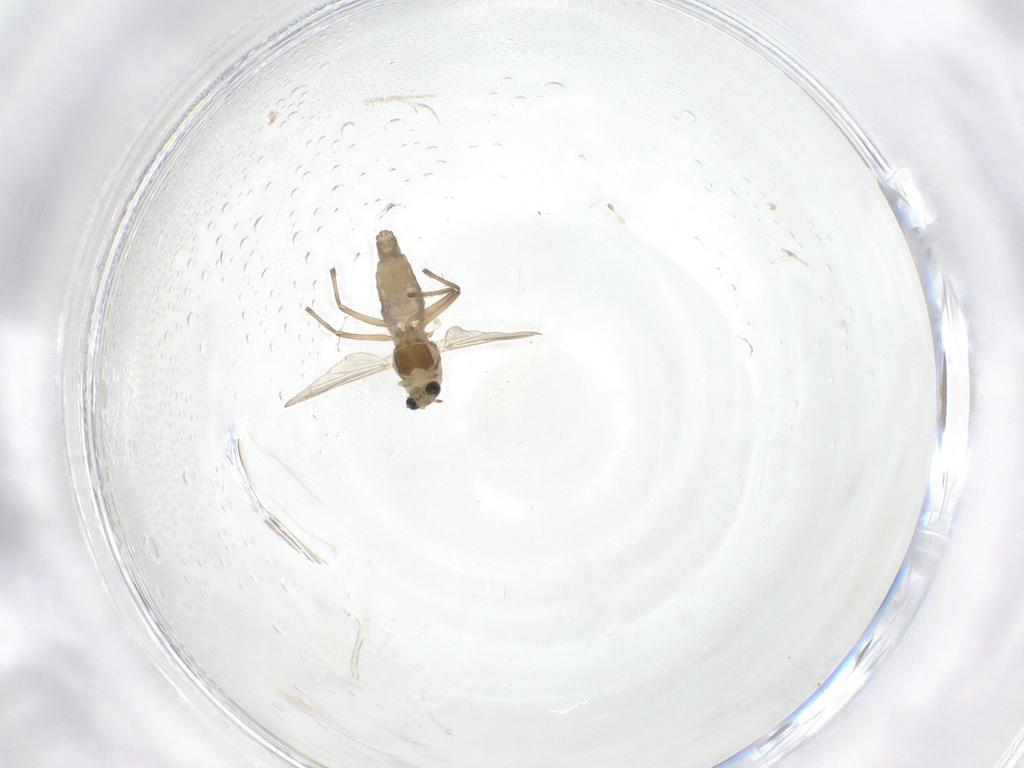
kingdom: Animalia
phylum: Arthropoda
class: Insecta
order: Diptera
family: Chironomidae
